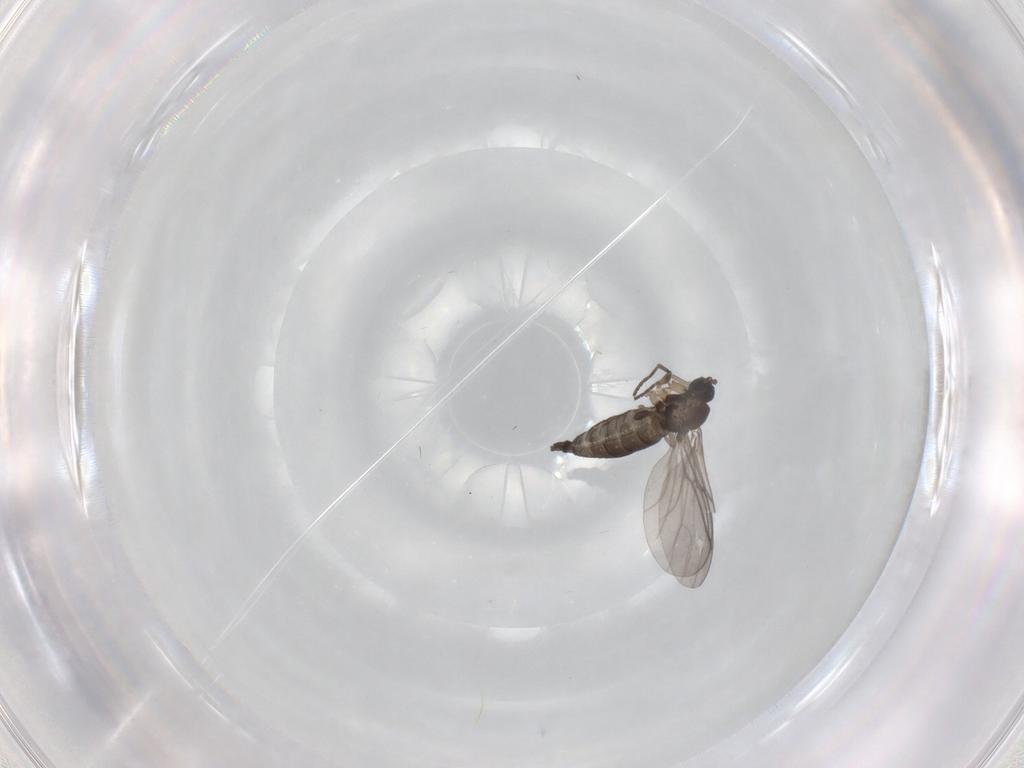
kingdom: Animalia
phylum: Arthropoda
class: Insecta
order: Diptera
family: Sciaridae
